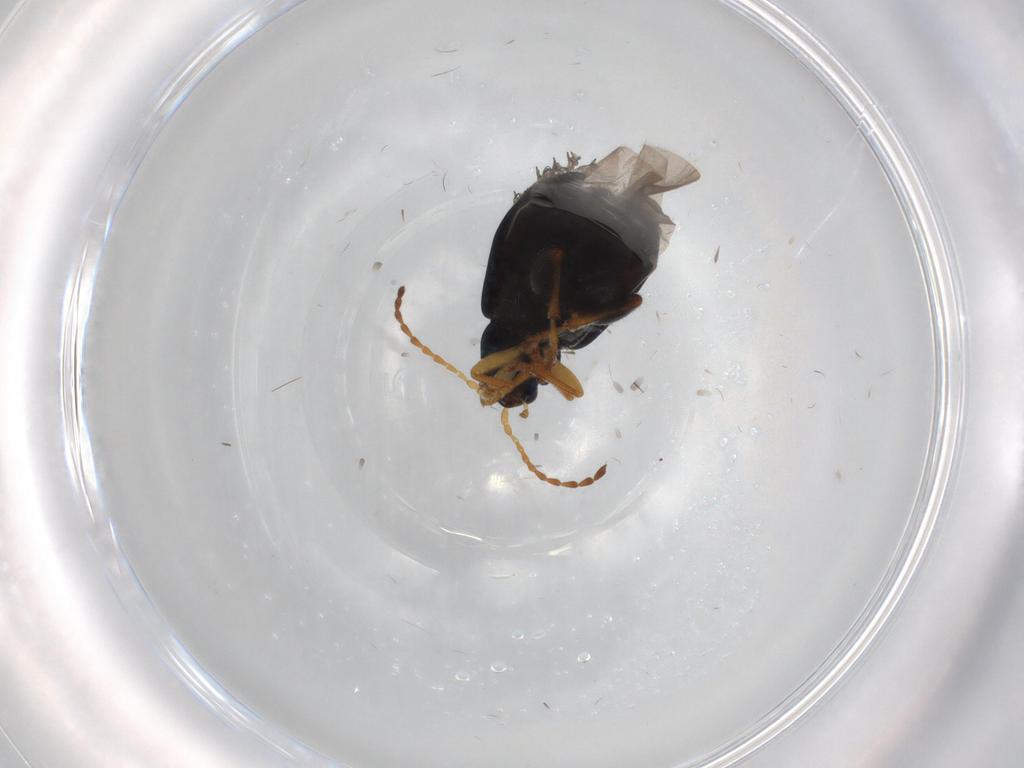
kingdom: Animalia
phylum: Arthropoda
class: Insecta
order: Coleoptera
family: Chrysomelidae
